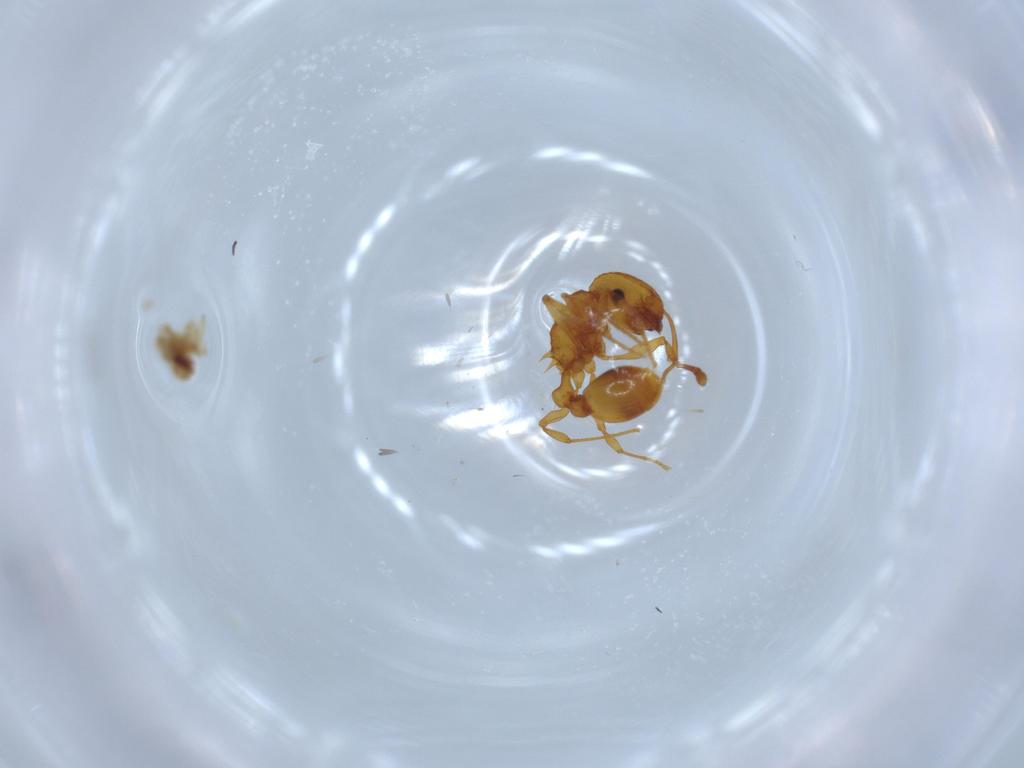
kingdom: Animalia
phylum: Arthropoda
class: Insecta
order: Hymenoptera
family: Formicidae
